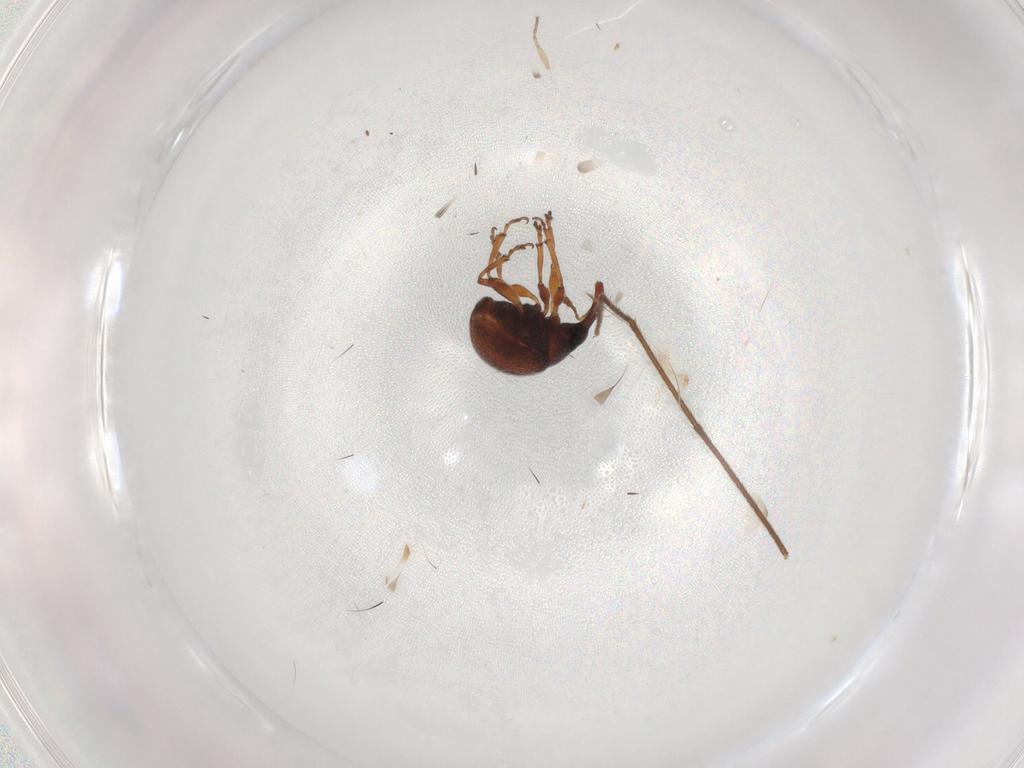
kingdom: Animalia
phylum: Arthropoda
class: Insecta
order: Coleoptera
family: Brentidae
